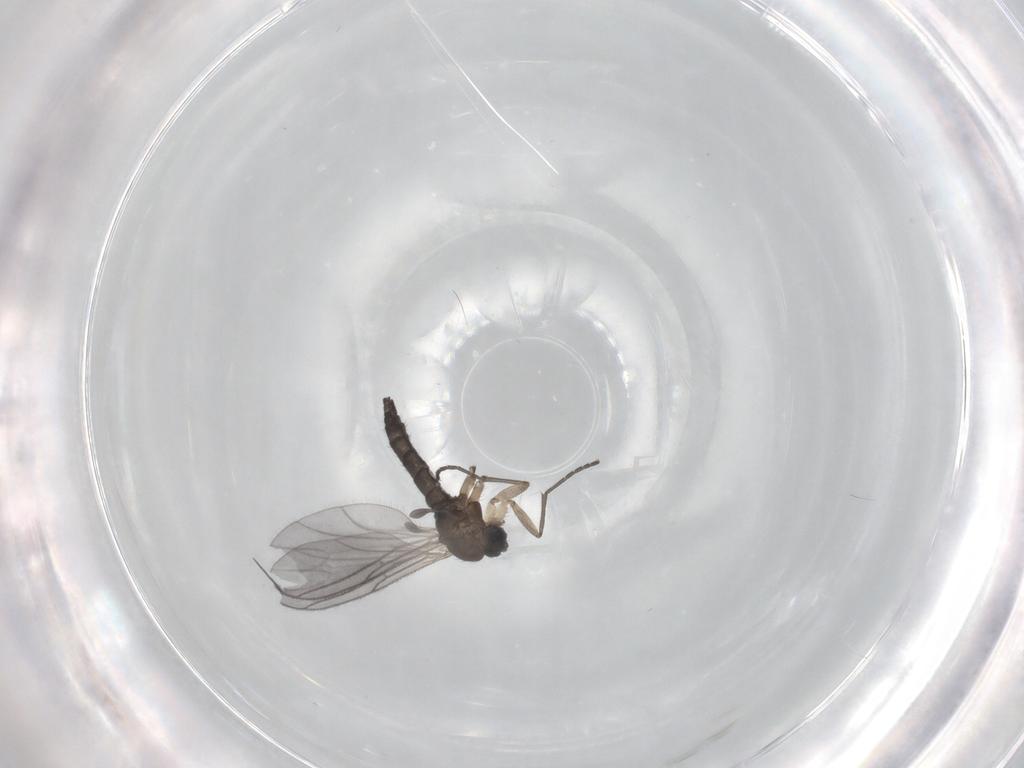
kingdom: Animalia
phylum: Arthropoda
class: Insecta
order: Diptera
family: Sciaridae
